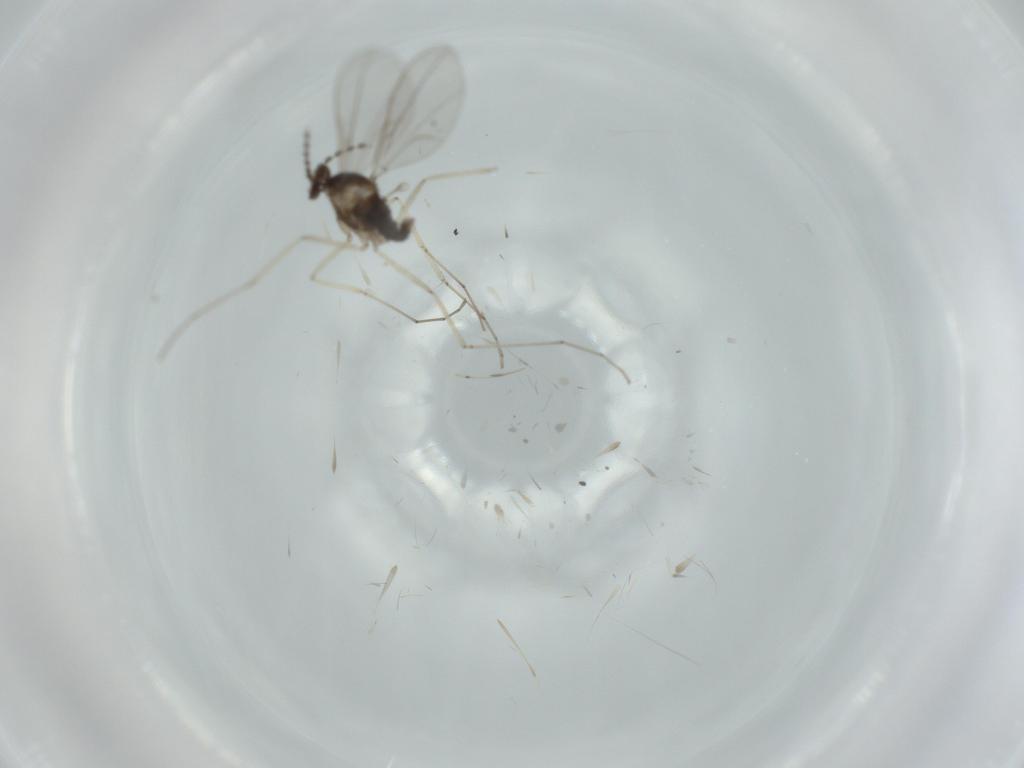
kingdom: Animalia
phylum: Arthropoda
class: Insecta
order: Diptera
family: Cecidomyiidae
